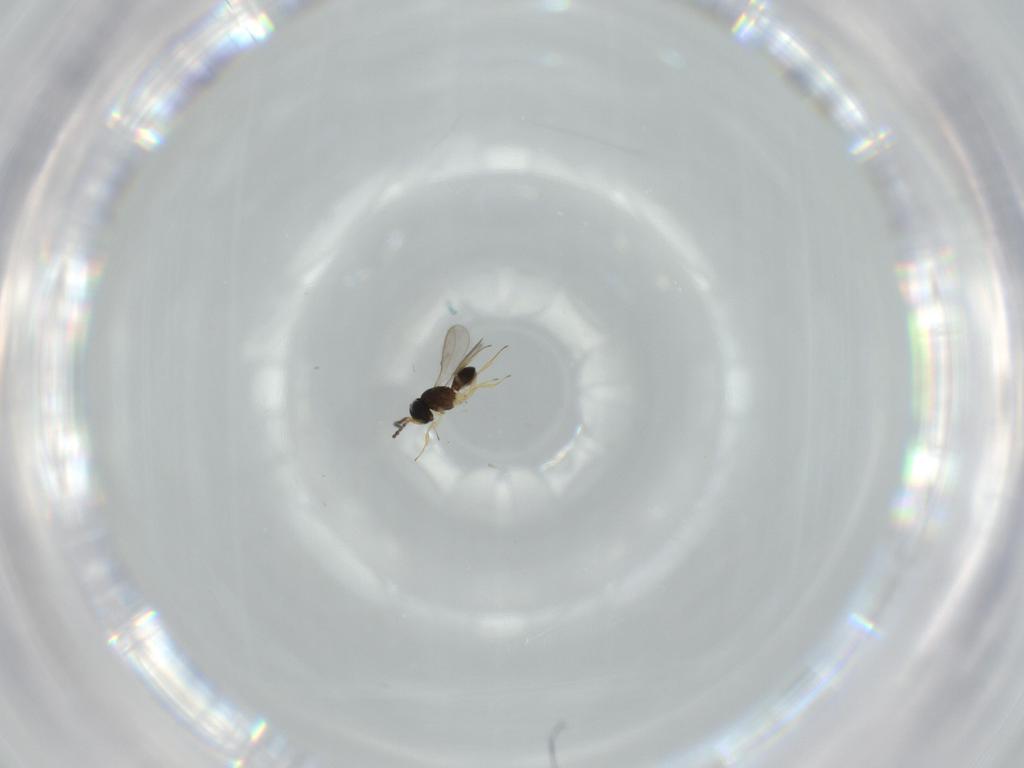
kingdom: Animalia
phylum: Arthropoda
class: Insecta
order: Hymenoptera
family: Scelionidae
